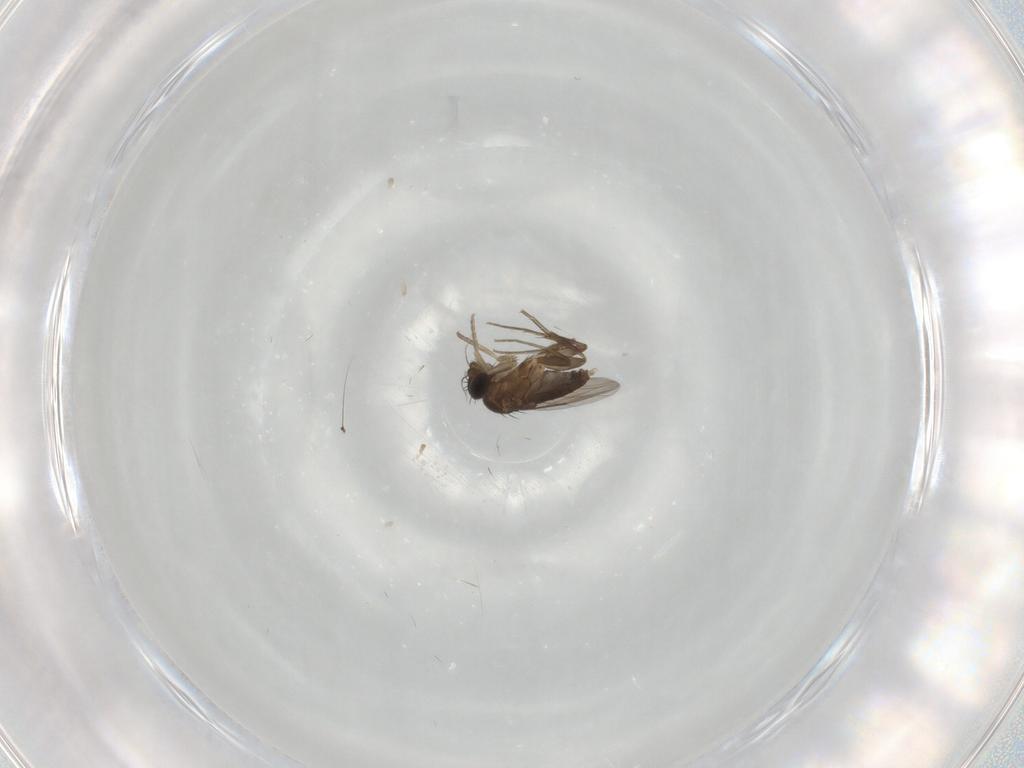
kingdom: Animalia
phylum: Arthropoda
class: Insecta
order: Diptera
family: Phoridae
